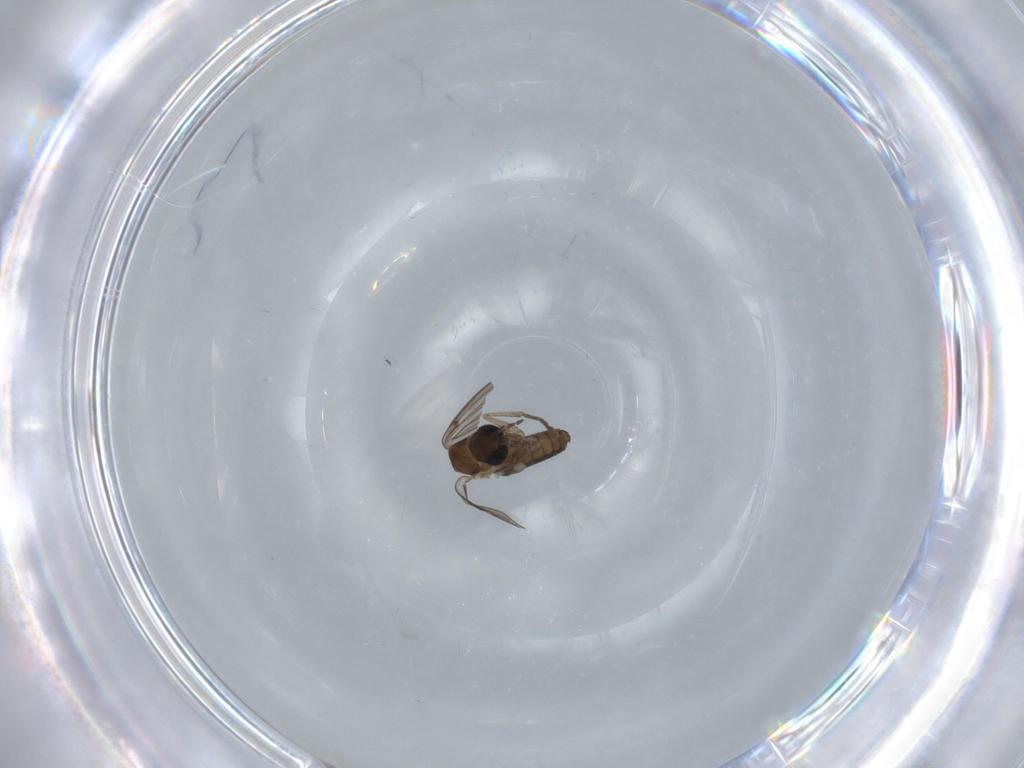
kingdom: Animalia
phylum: Arthropoda
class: Insecta
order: Diptera
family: Psychodidae
